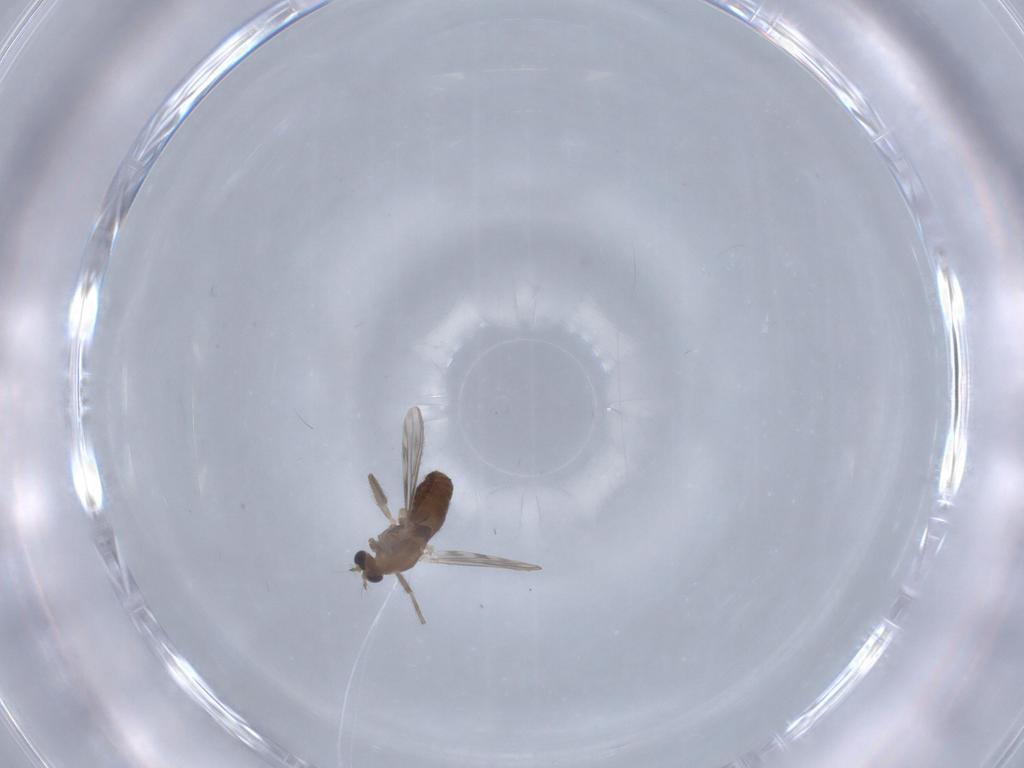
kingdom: Animalia
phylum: Arthropoda
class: Insecta
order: Diptera
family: Chironomidae
